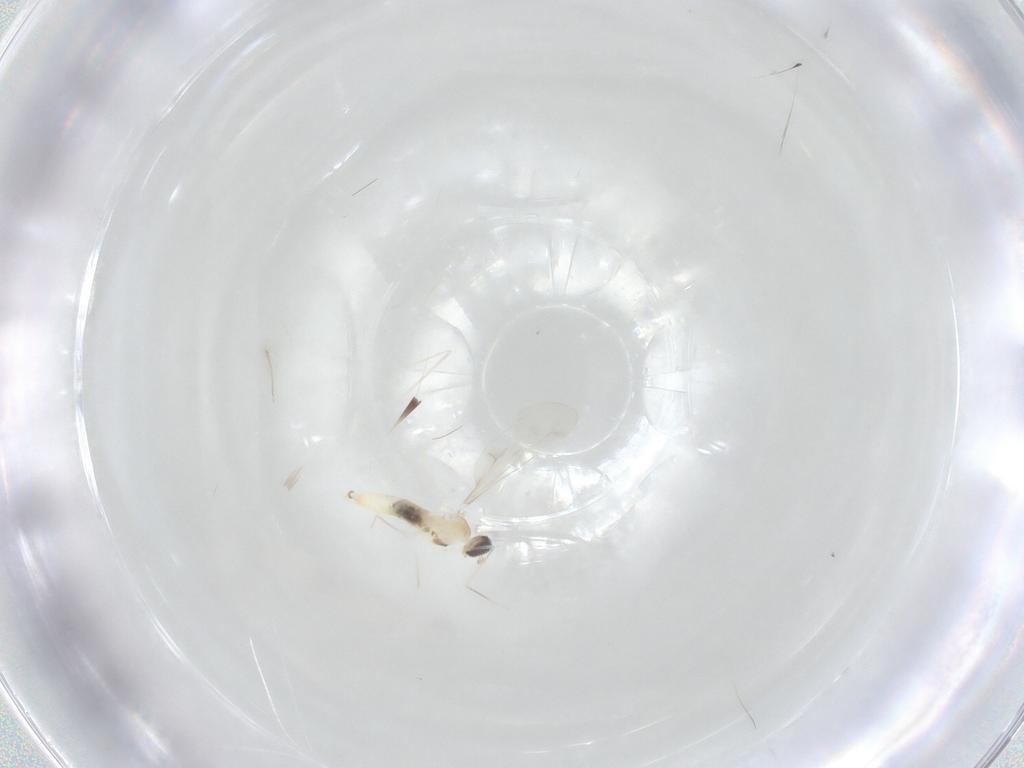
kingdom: Animalia
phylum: Arthropoda
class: Insecta
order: Diptera
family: Cecidomyiidae
